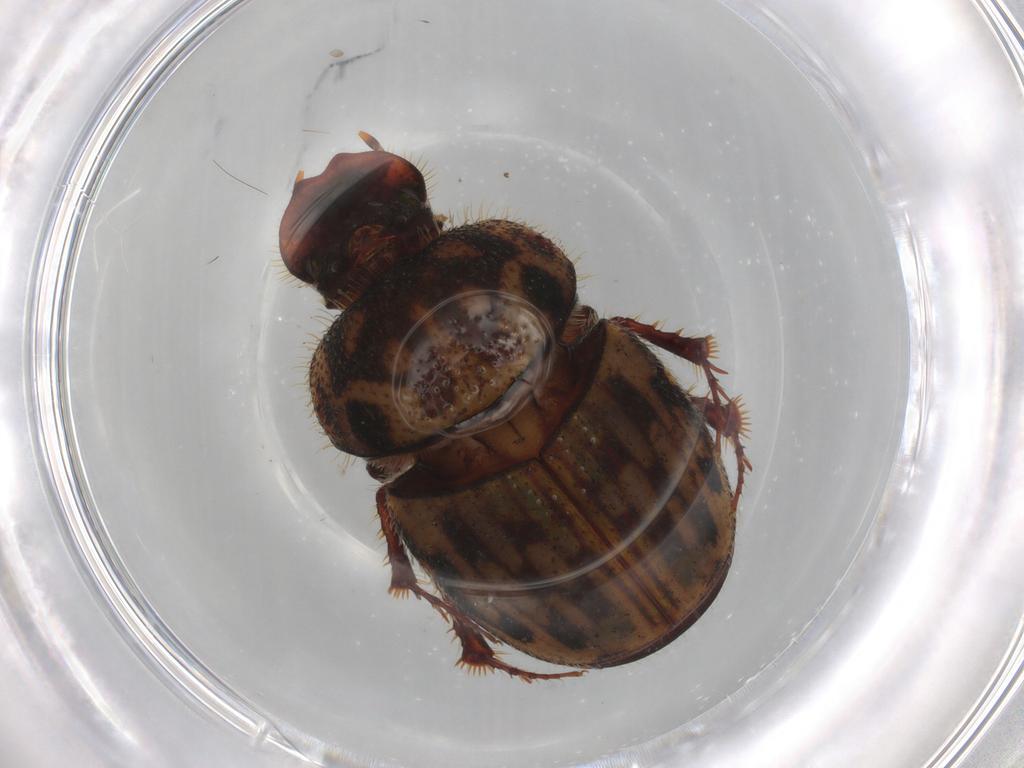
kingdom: Animalia
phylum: Arthropoda
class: Insecta
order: Coleoptera
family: Scarabaeidae
